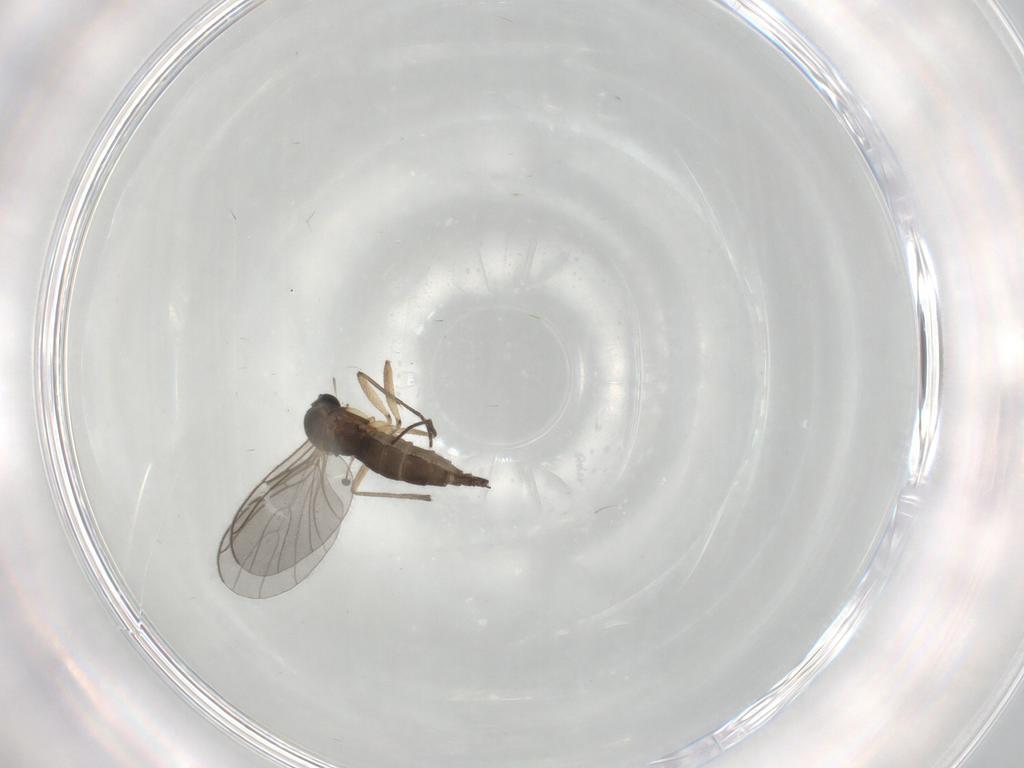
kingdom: Animalia
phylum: Arthropoda
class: Insecta
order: Diptera
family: Sciaridae
